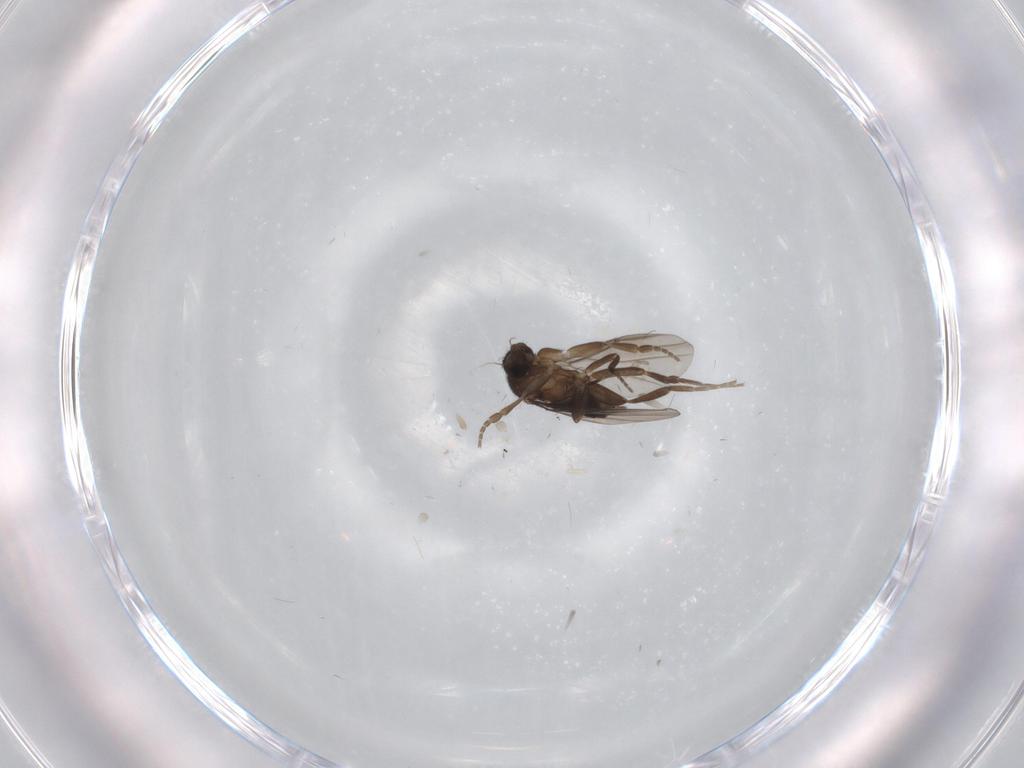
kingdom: Animalia
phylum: Arthropoda
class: Insecta
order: Diptera
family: Phoridae
